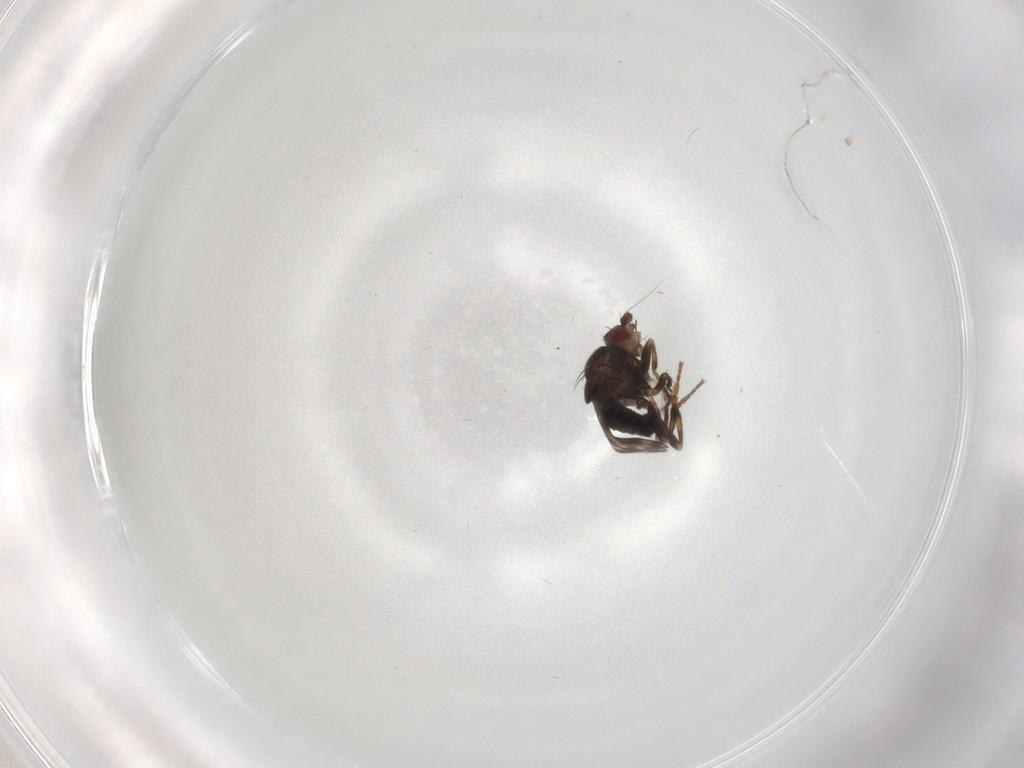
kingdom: Animalia
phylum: Arthropoda
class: Insecta
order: Diptera
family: Sphaeroceridae
